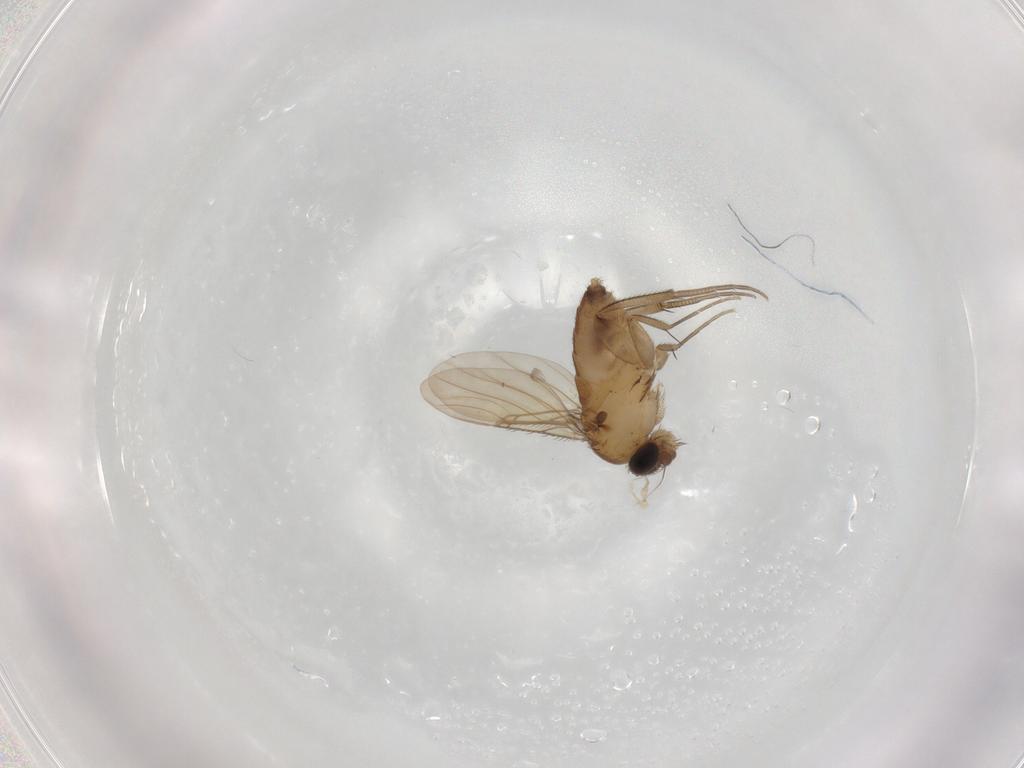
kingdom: Animalia
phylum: Arthropoda
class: Insecta
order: Diptera
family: Phoridae
